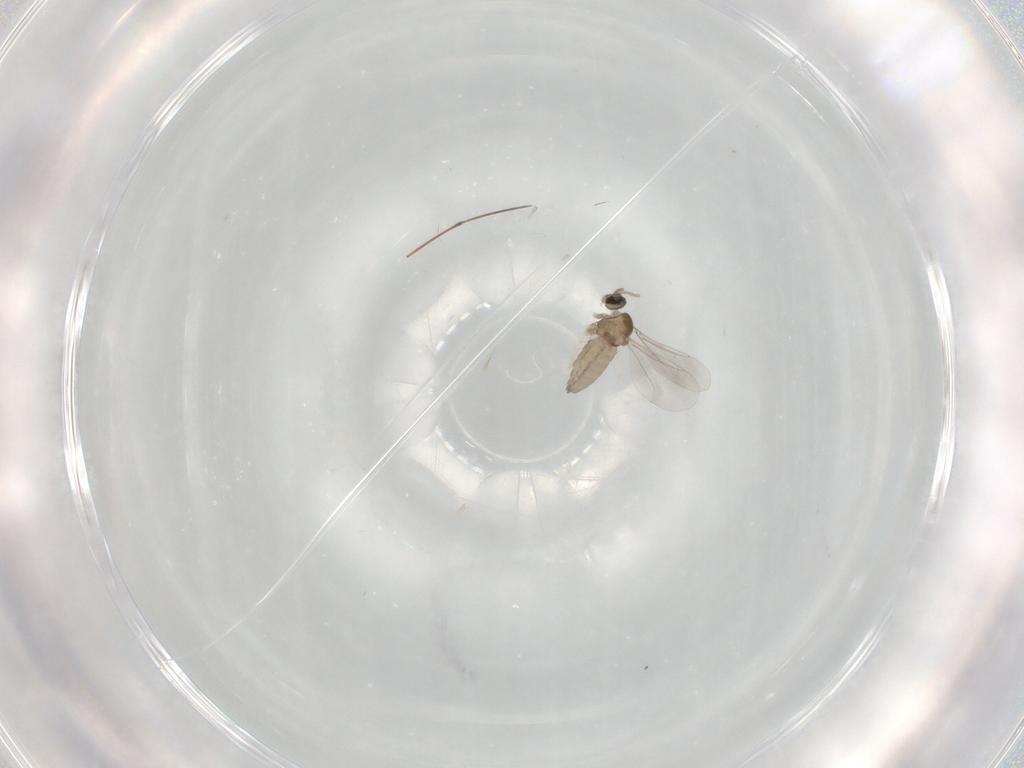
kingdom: Animalia
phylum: Arthropoda
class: Insecta
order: Diptera
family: Cecidomyiidae
